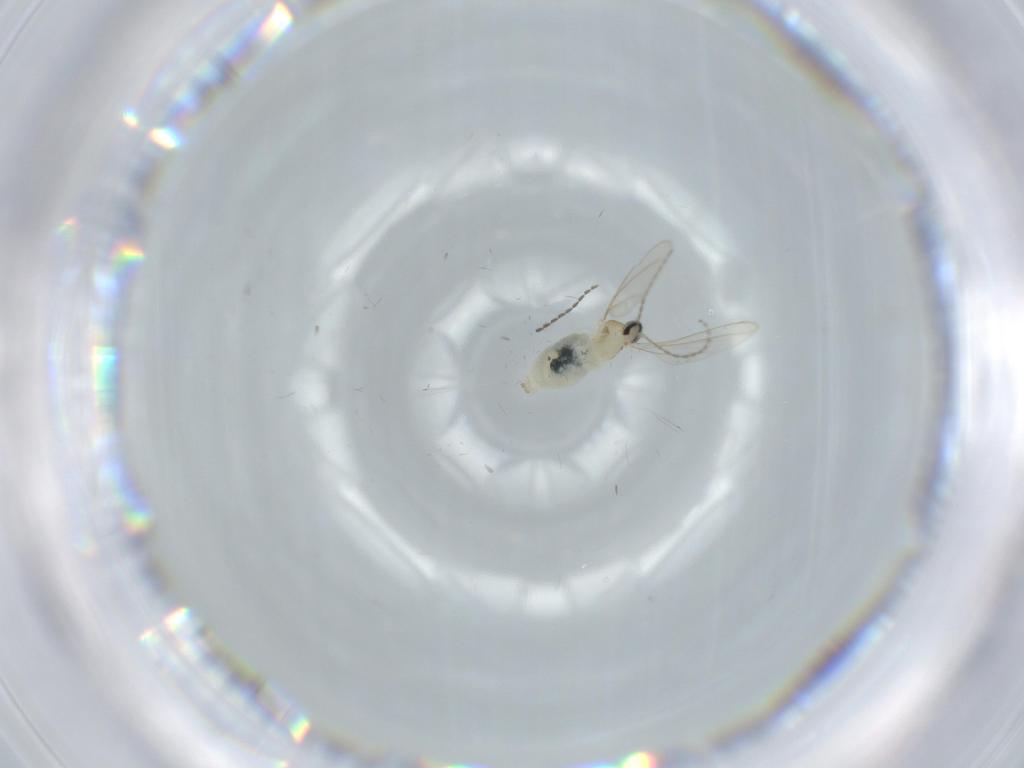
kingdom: Animalia
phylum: Arthropoda
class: Insecta
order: Diptera
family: Cecidomyiidae
